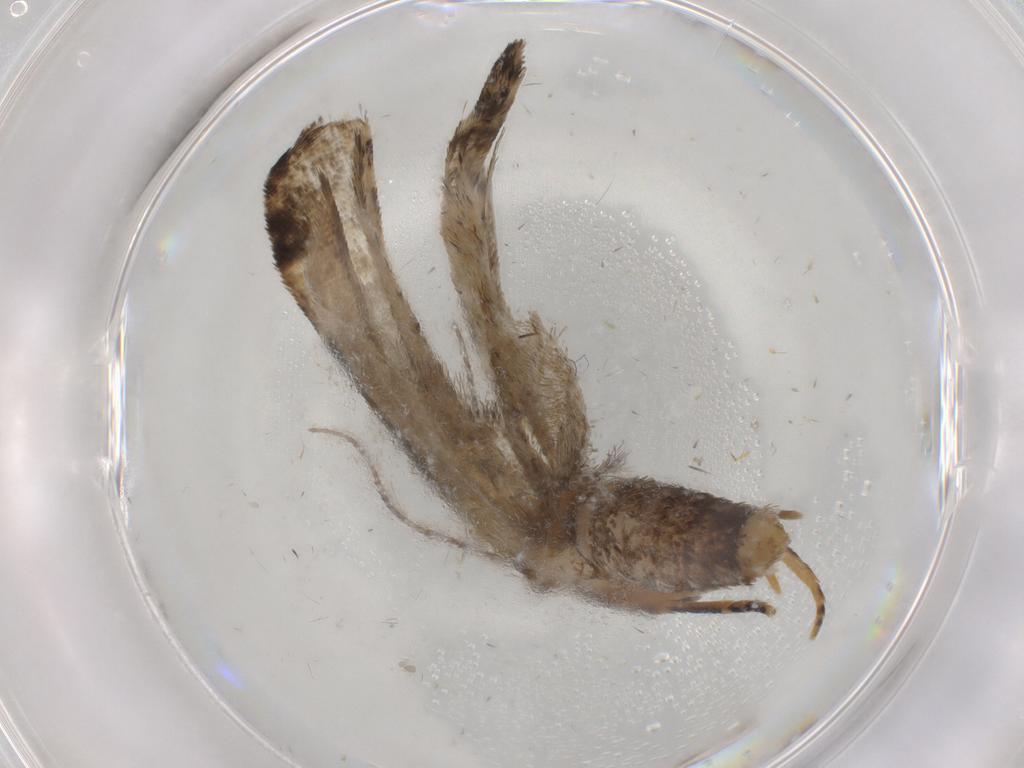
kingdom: Animalia
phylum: Arthropoda
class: Insecta
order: Lepidoptera
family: Tortricidae
